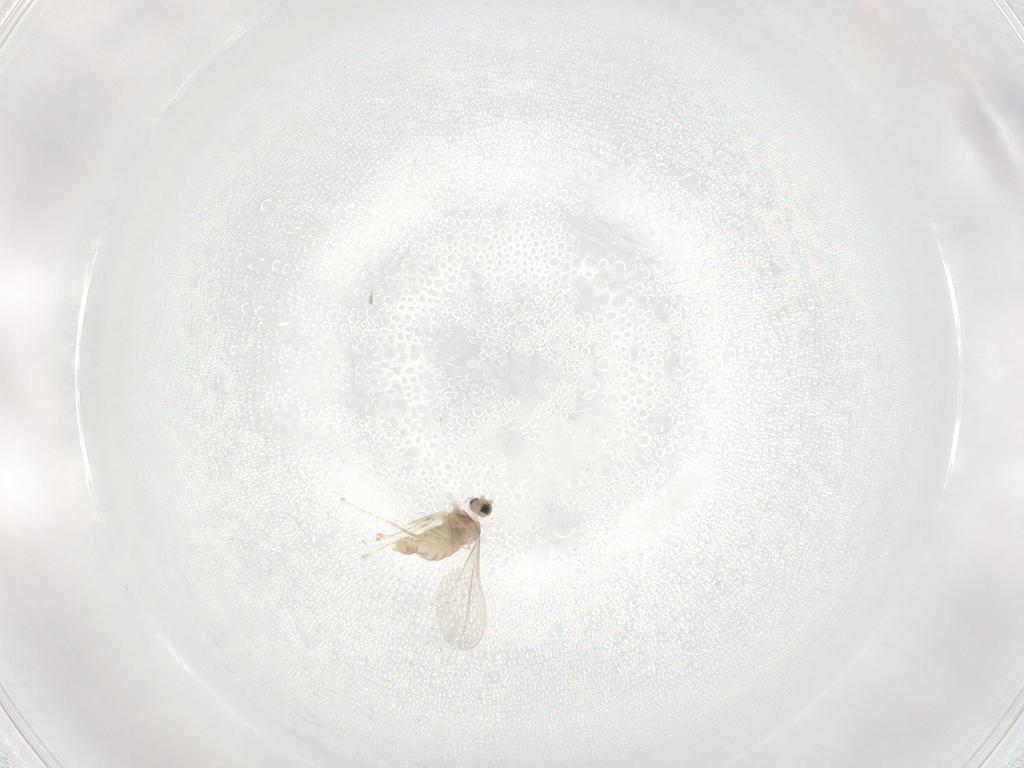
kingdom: Animalia
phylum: Arthropoda
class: Insecta
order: Diptera
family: Cecidomyiidae
